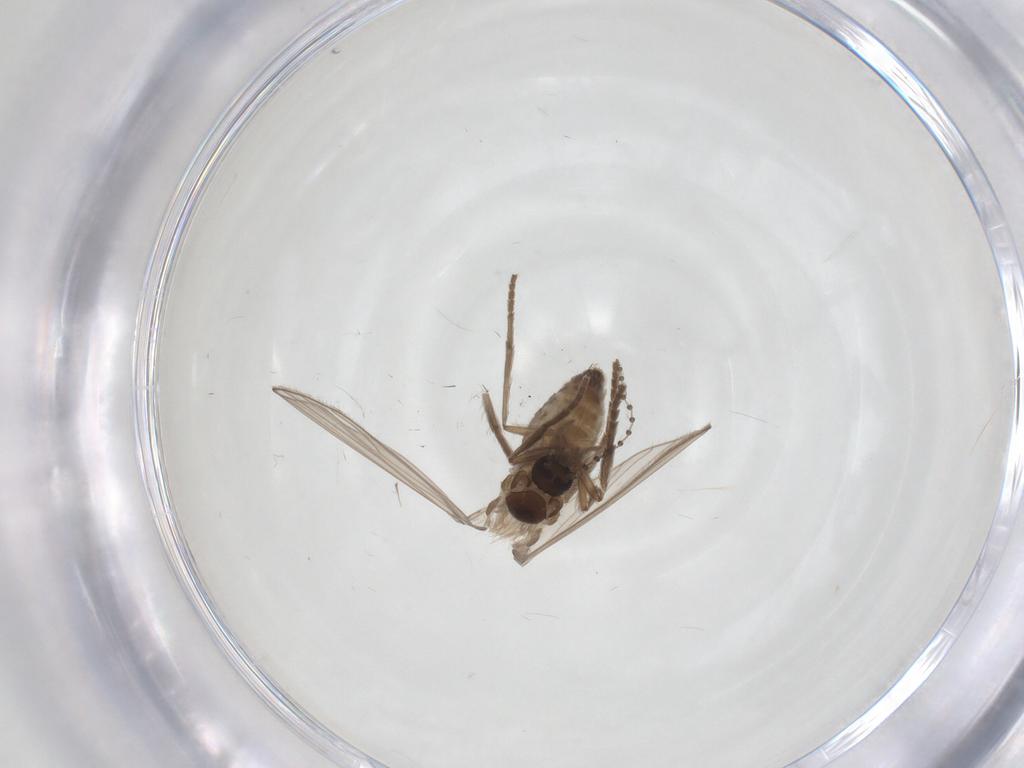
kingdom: Animalia
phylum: Arthropoda
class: Insecta
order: Diptera
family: Psychodidae
